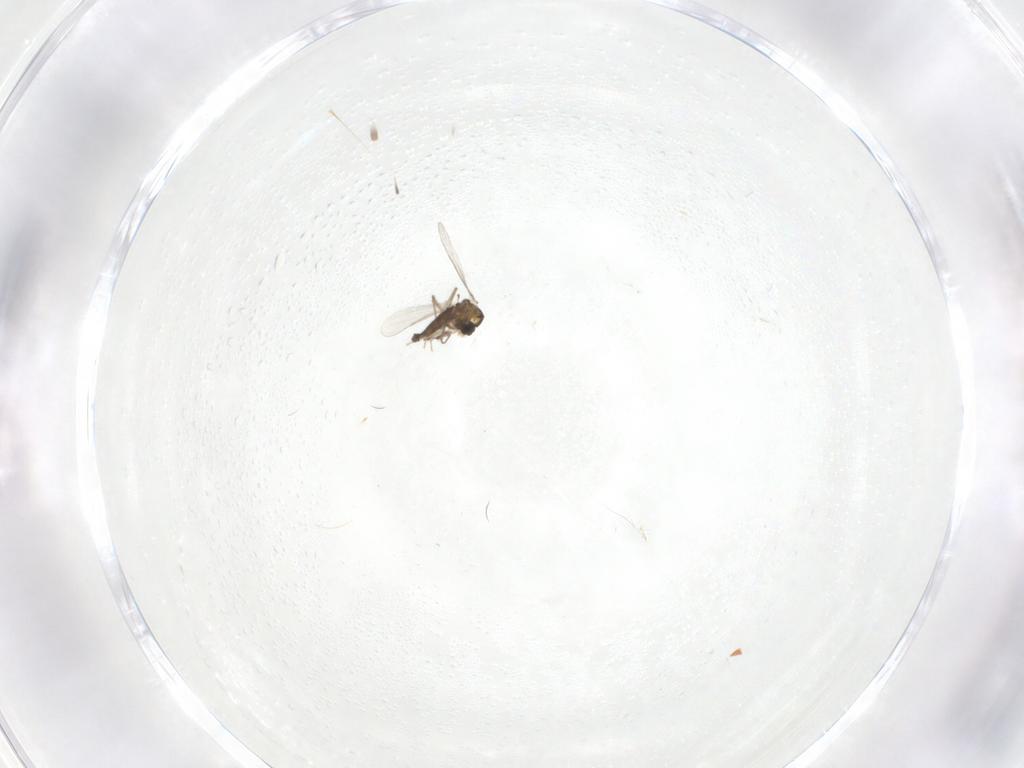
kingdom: Animalia
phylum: Arthropoda
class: Insecta
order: Diptera
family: Chironomidae
